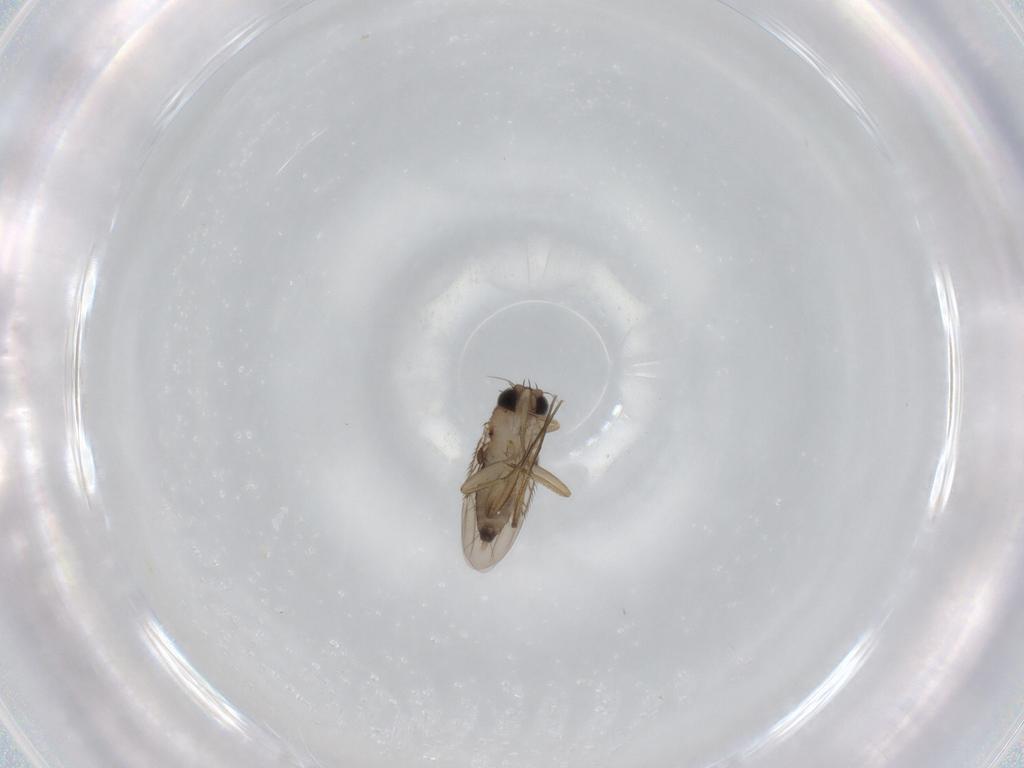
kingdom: Animalia
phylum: Arthropoda
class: Insecta
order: Diptera
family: Phoridae
